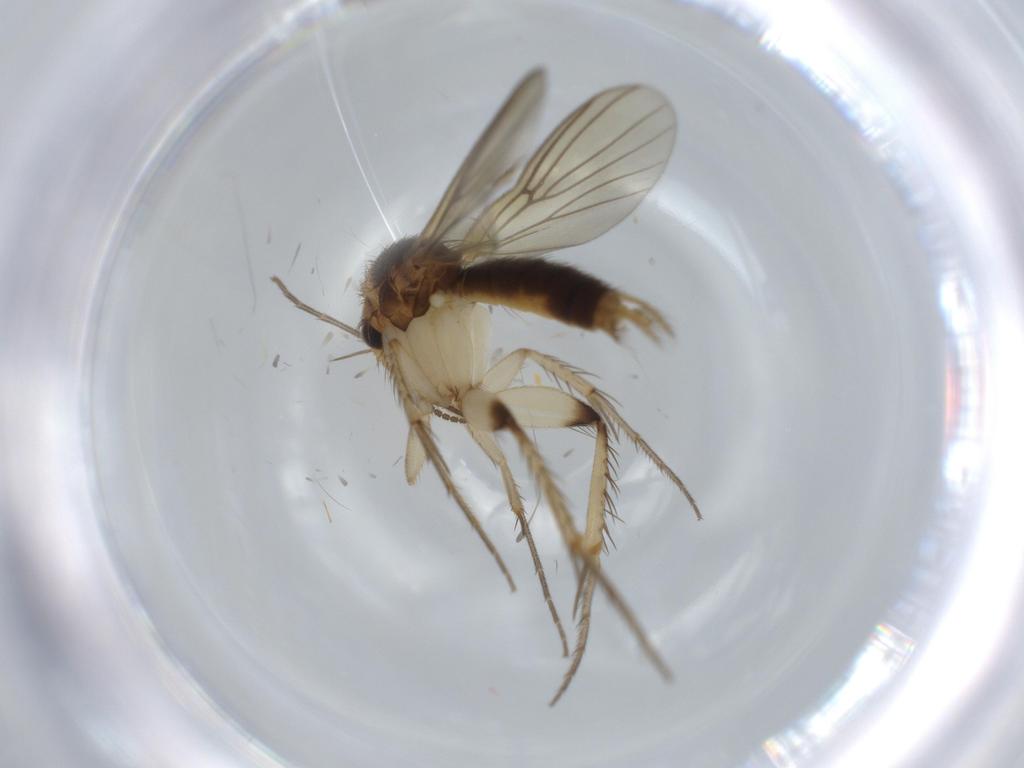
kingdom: Animalia
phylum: Arthropoda
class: Insecta
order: Diptera
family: Mycetophilidae
